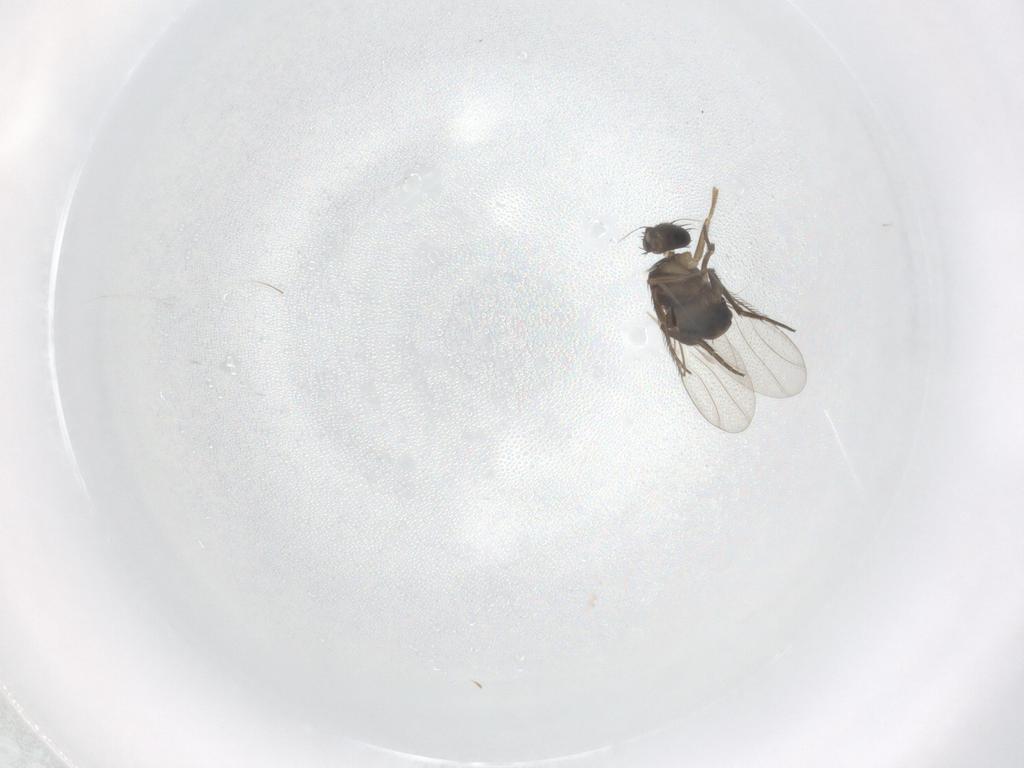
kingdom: Animalia
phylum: Arthropoda
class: Insecta
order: Diptera
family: Phoridae
